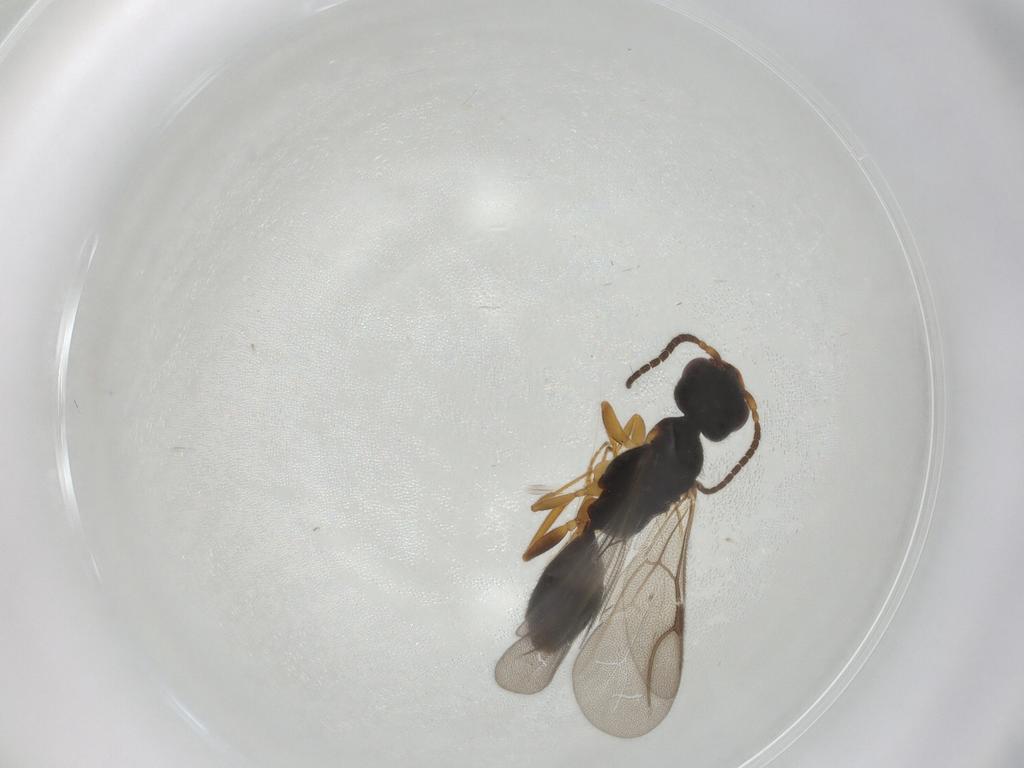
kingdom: Animalia
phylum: Arthropoda
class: Insecta
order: Hymenoptera
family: Bethylidae
